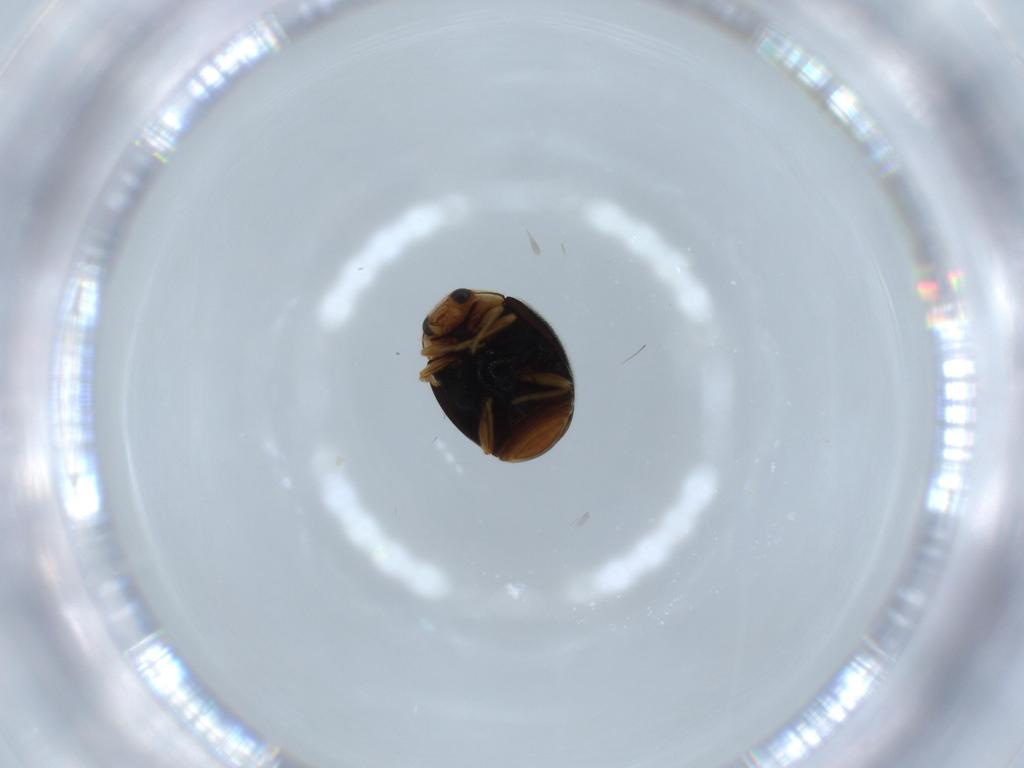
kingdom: Animalia
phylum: Arthropoda
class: Insecta
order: Coleoptera
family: Coccinellidae
